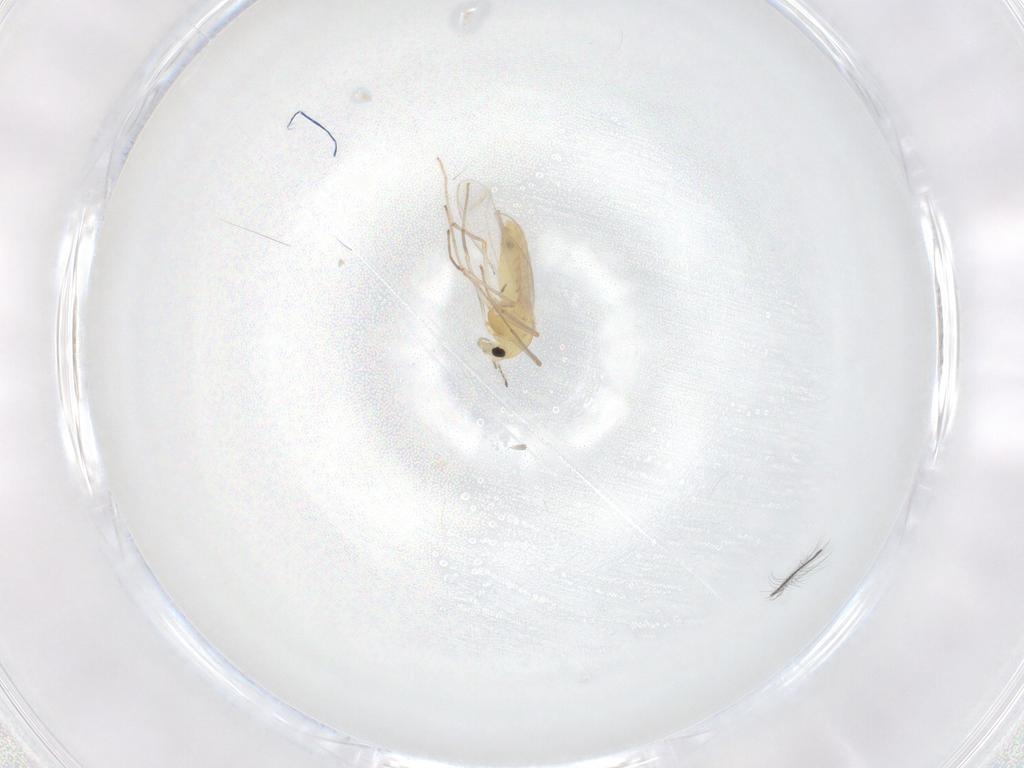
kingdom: Animalia
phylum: Arthropoda
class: Insecta
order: Diptera
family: Chironomidae
